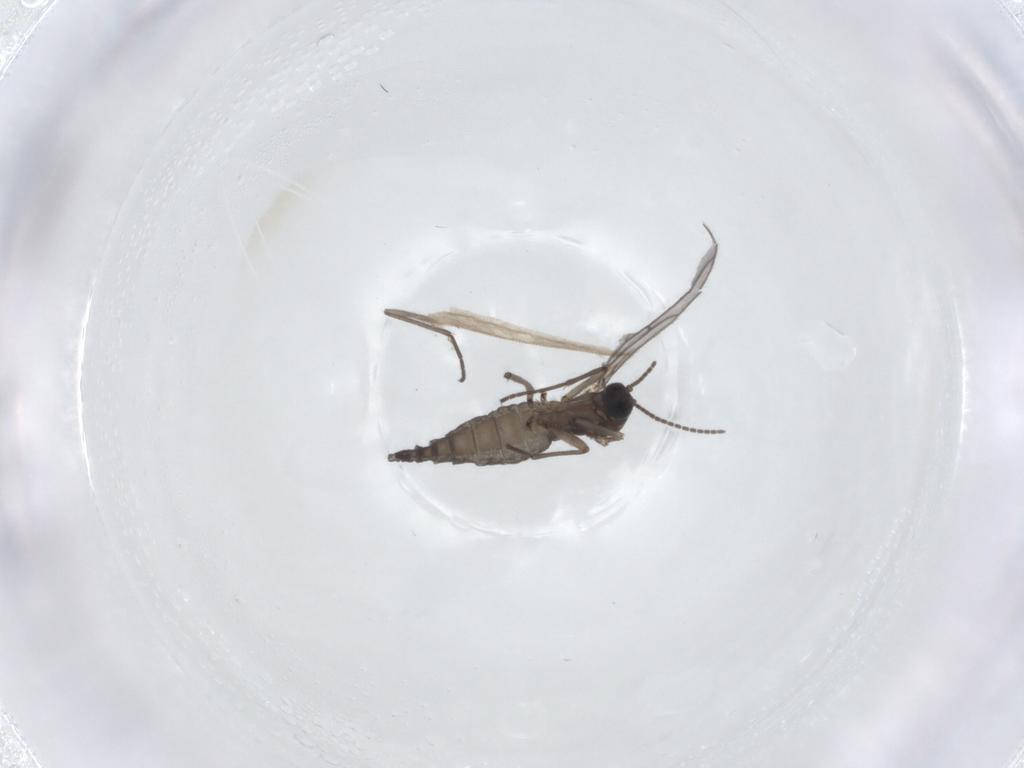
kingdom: Animalia
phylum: Arthropoda
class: Insecta
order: Diptera
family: Sciaridae
